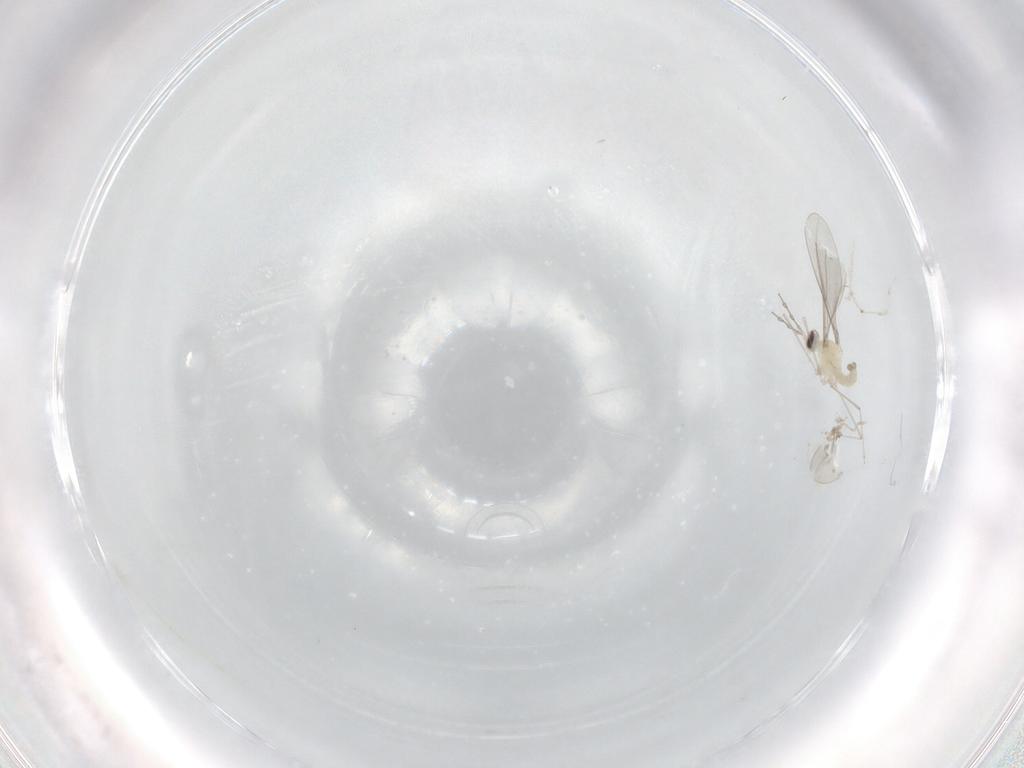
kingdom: Animalia
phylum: Arthropoda
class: Insecta
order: Diptera
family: Cecidomyiidae
